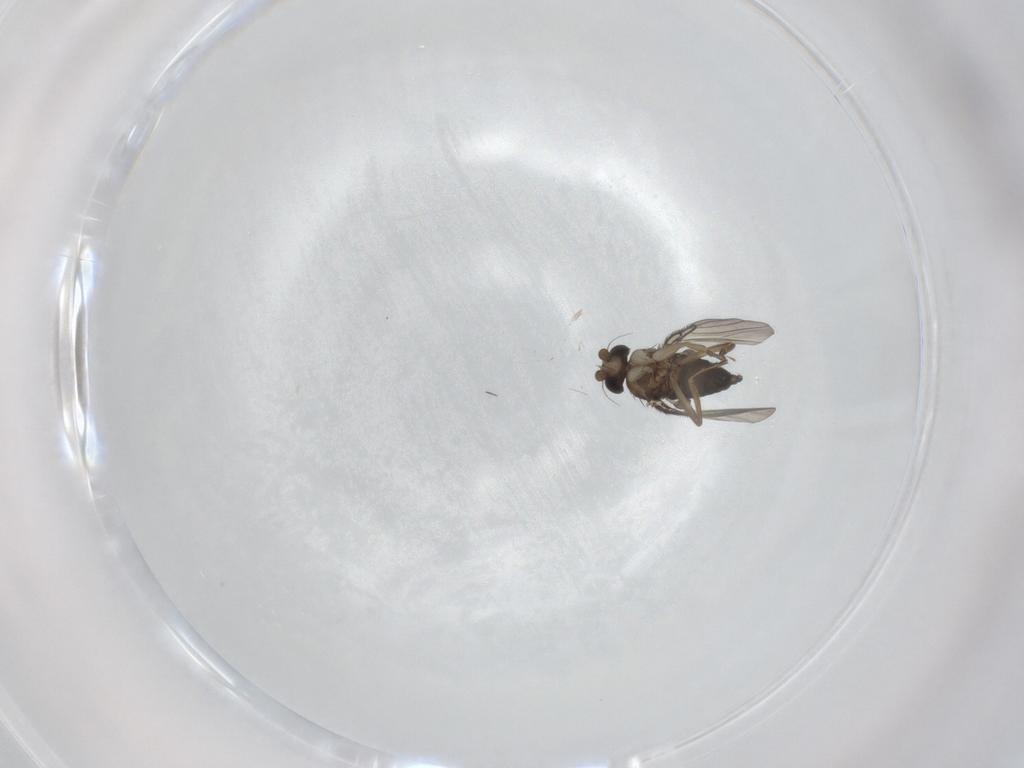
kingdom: Animalia
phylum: Arthropoda
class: Insecta
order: Diptera
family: Phoridae
